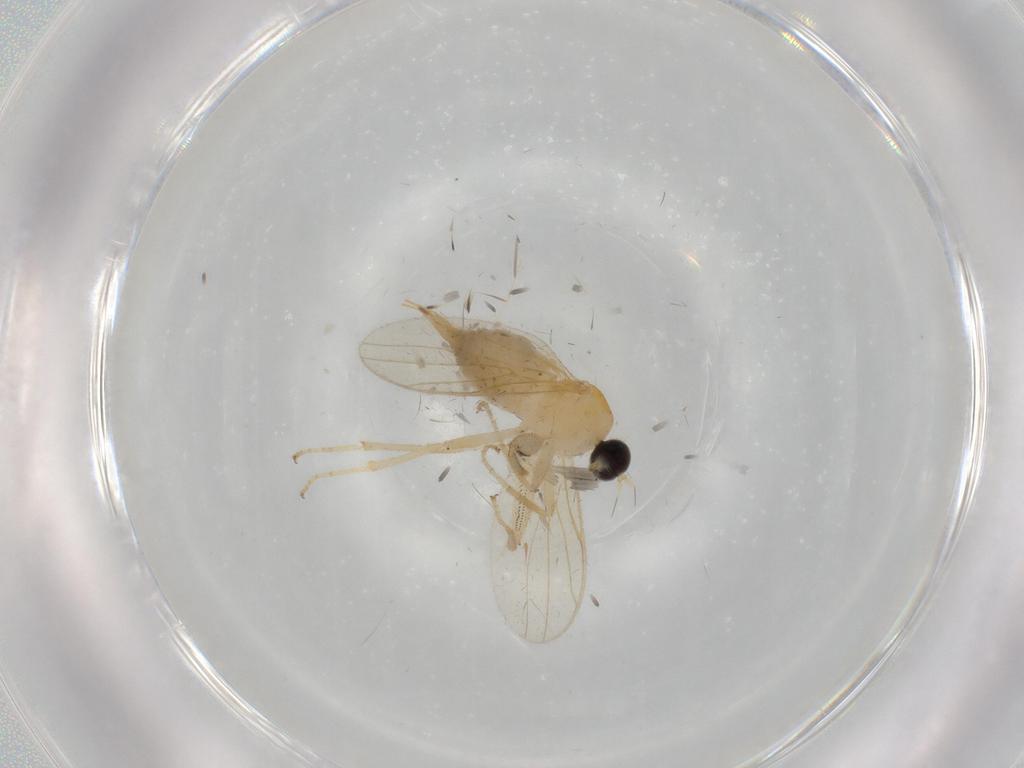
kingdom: Animalia
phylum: Arthropoda
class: Insecta
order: Diptera
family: Hybotidae
